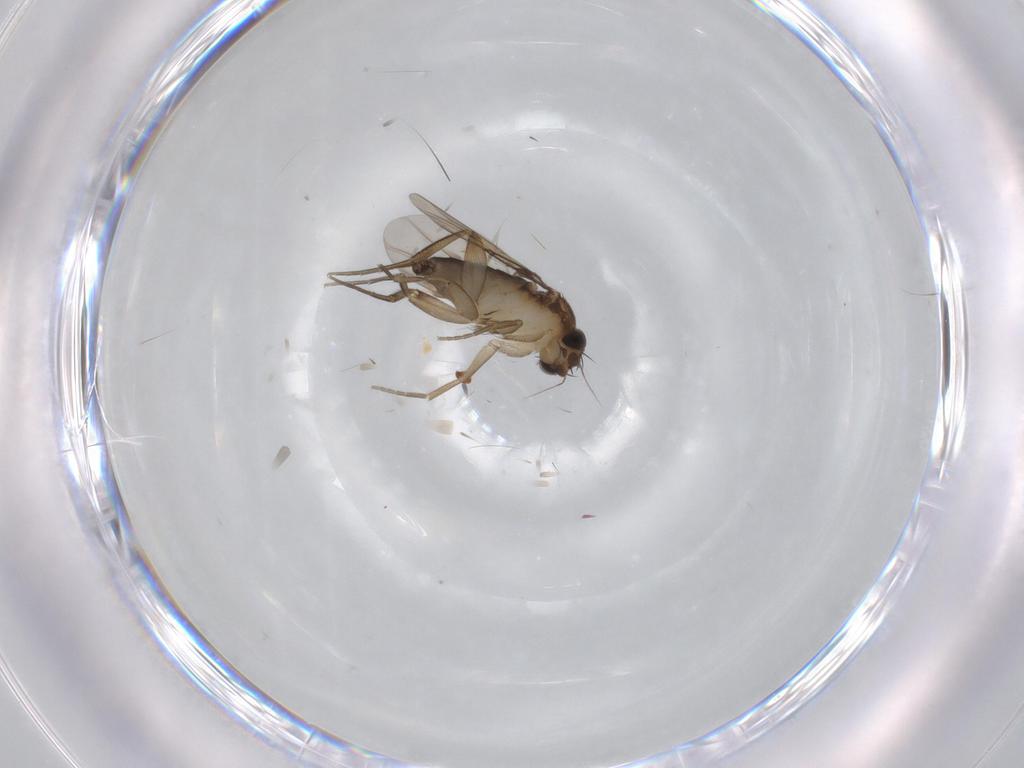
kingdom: Animalia
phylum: Arthropoda
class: Insecta
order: Diptera
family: Phoridae
